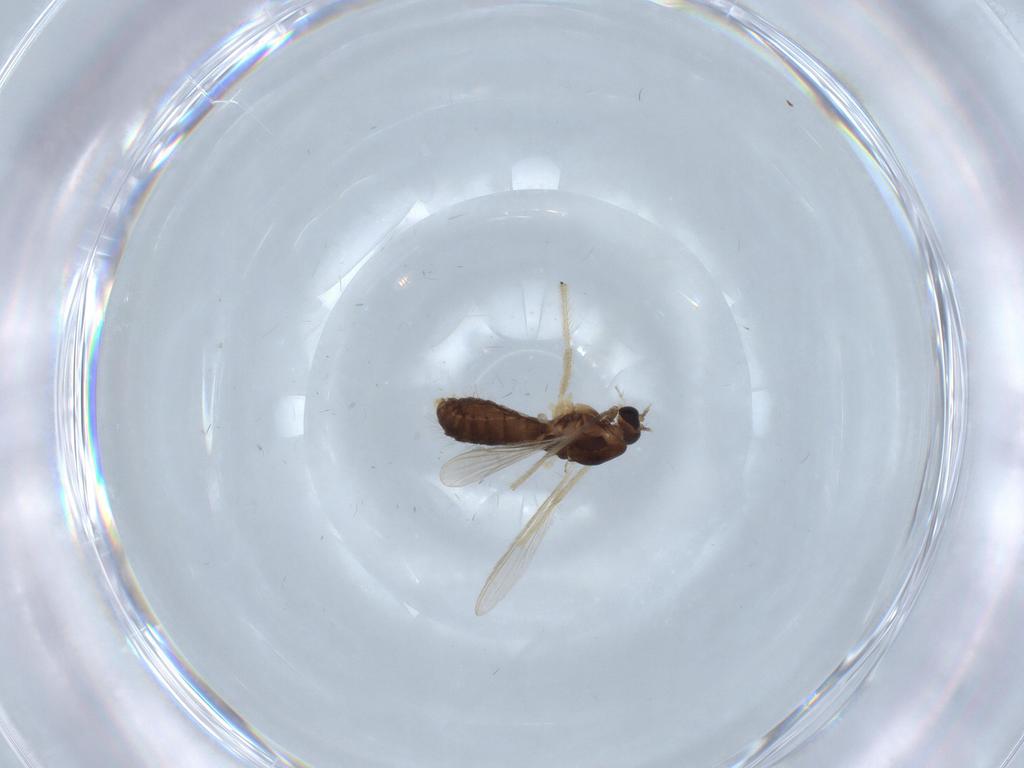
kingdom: Animalia
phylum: Arthropoda
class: Insecta
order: Diptera
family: Chironomidae
